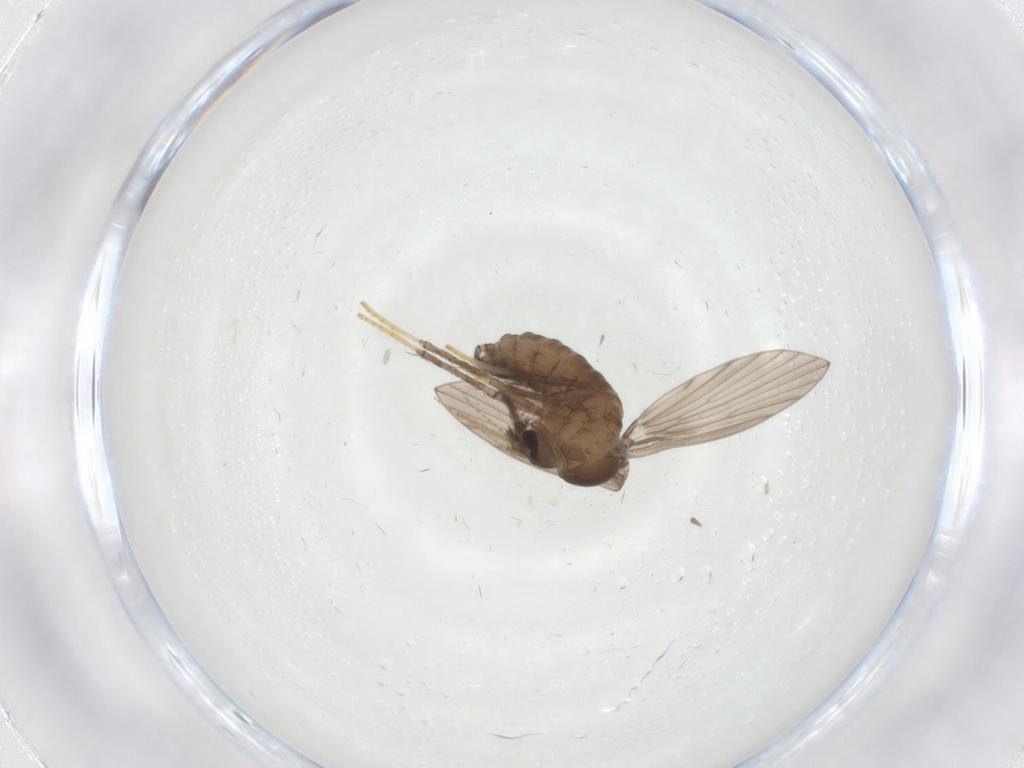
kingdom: Animalia
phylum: Arthropoda
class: Insecta
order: Diptera
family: Psychodidae
